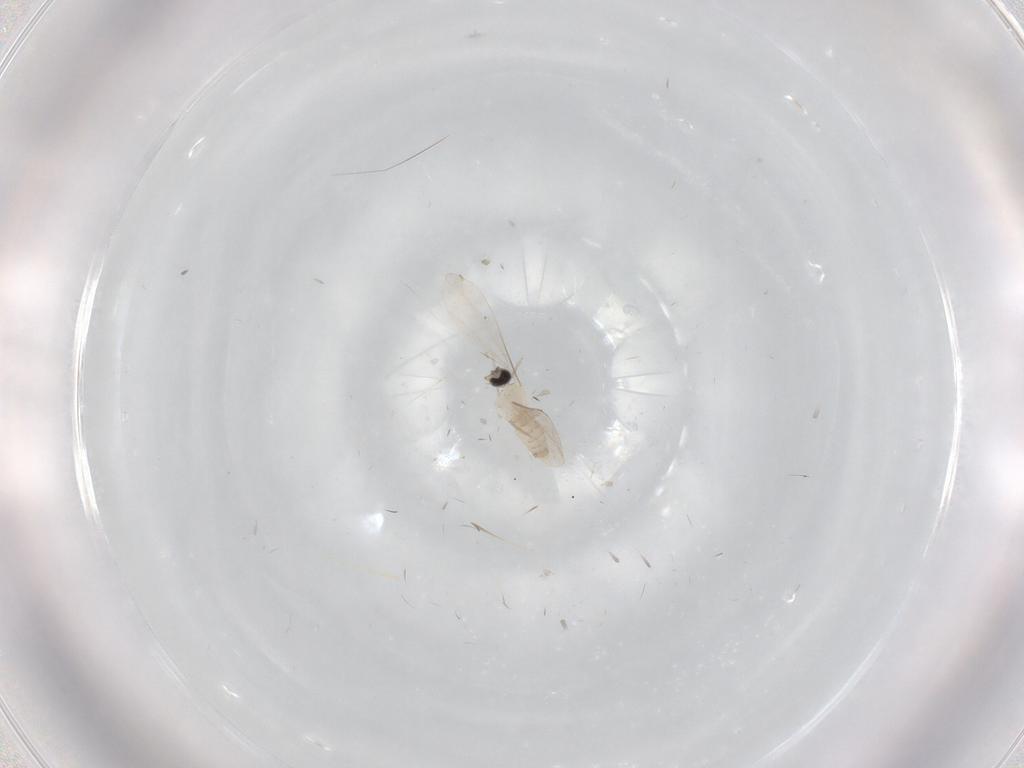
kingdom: Animalia
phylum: Arthropoda
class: Insecta
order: Diptera
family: Cecidomyiidae
